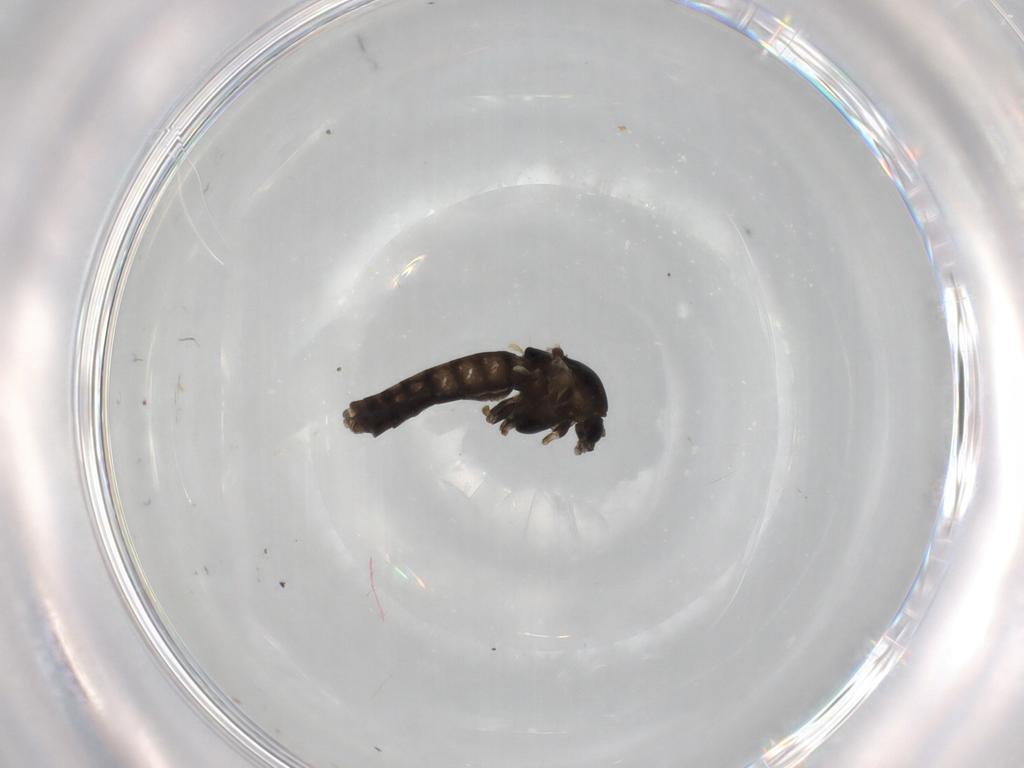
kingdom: Animalia
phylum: Arthropoda
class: Insecta
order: Diptera
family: Chironomidae
